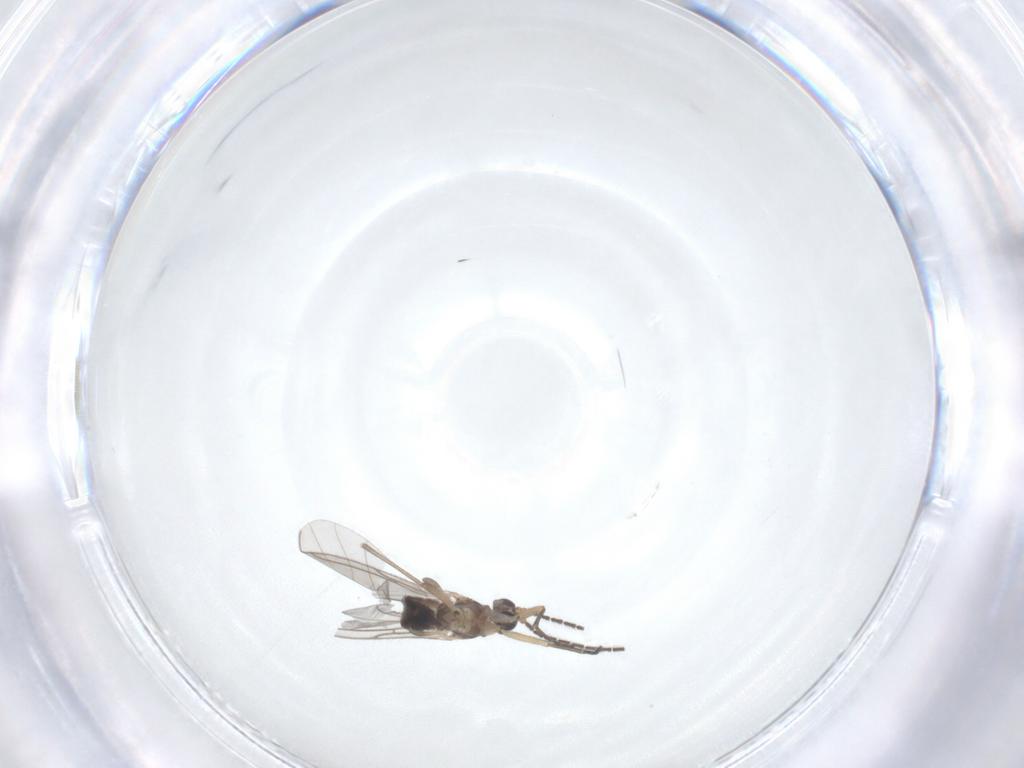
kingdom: Animalia
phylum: Arthropoda
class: Insecta
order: Diptera
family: Sciaridae
